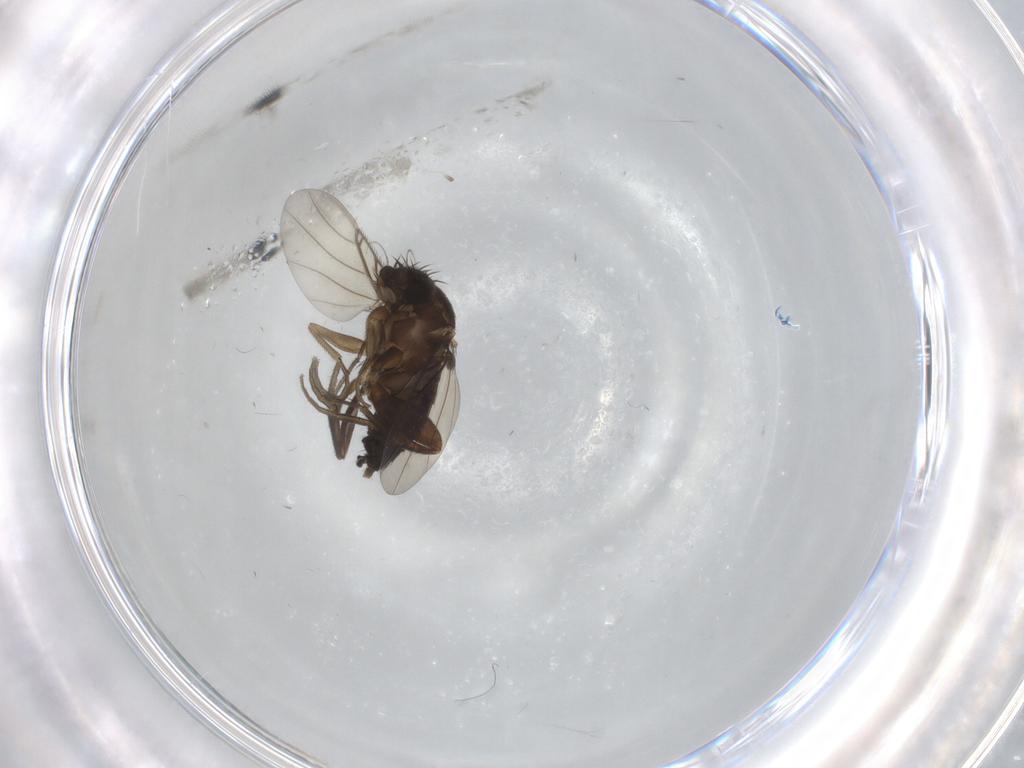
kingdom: Animalia
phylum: Arthropoda
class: Insecta
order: Diptera
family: Phoridae
